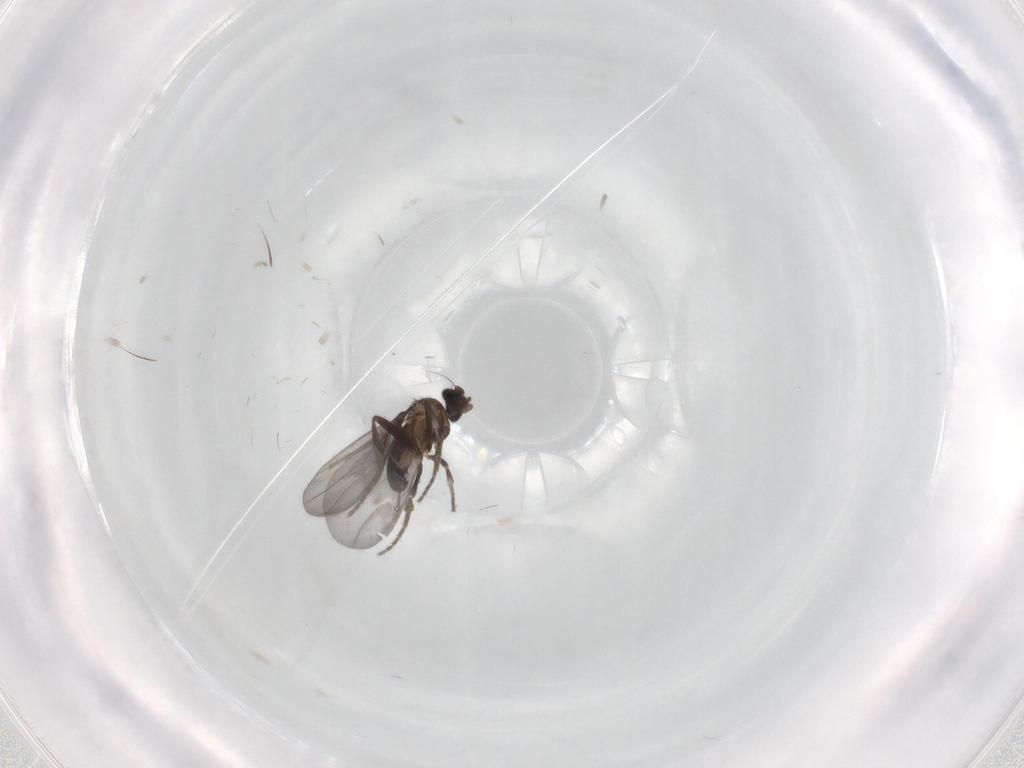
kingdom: Animalia
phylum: Arthropoda
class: Insecta
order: Diptera
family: Phoridae
